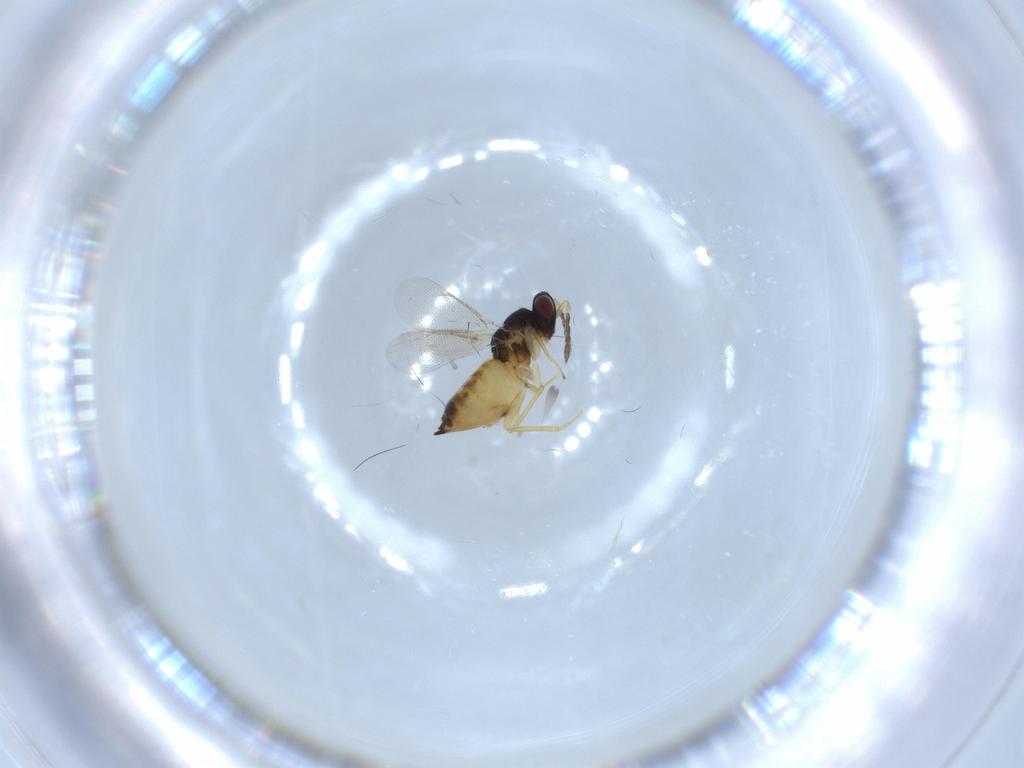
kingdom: Animalia
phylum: Arthropoda
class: Insecta
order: Hymenoptera
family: Eulophidae
